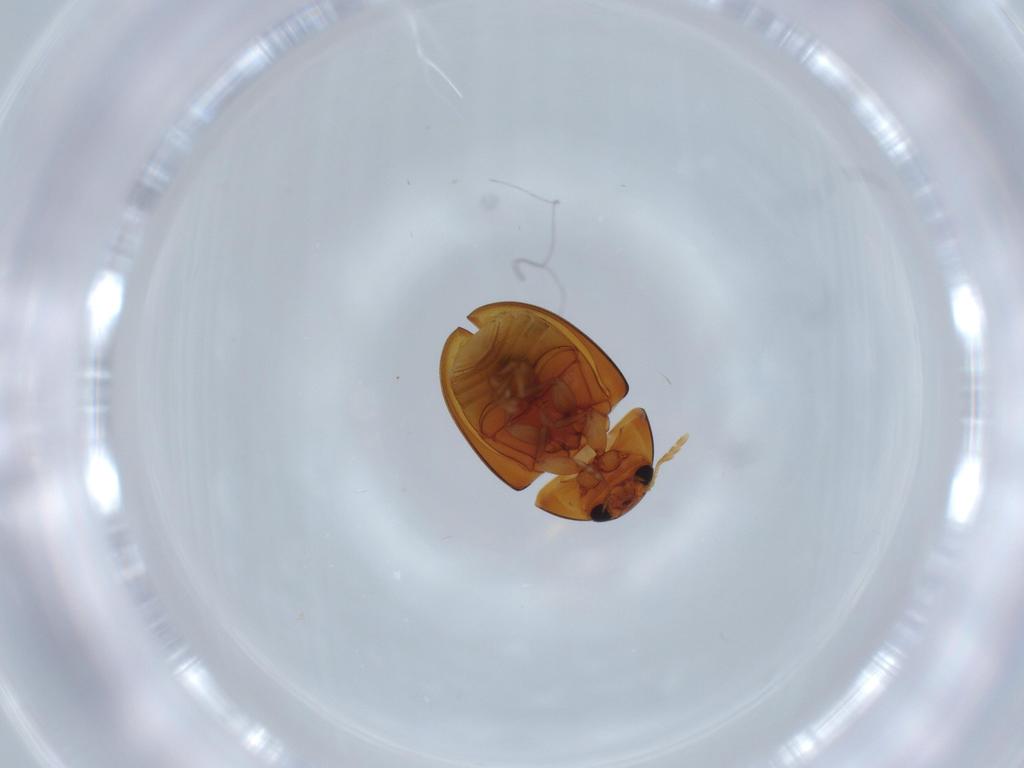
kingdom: Animalia
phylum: Arthropoda
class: Insecta
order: Coleoptera
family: Phalacridae
